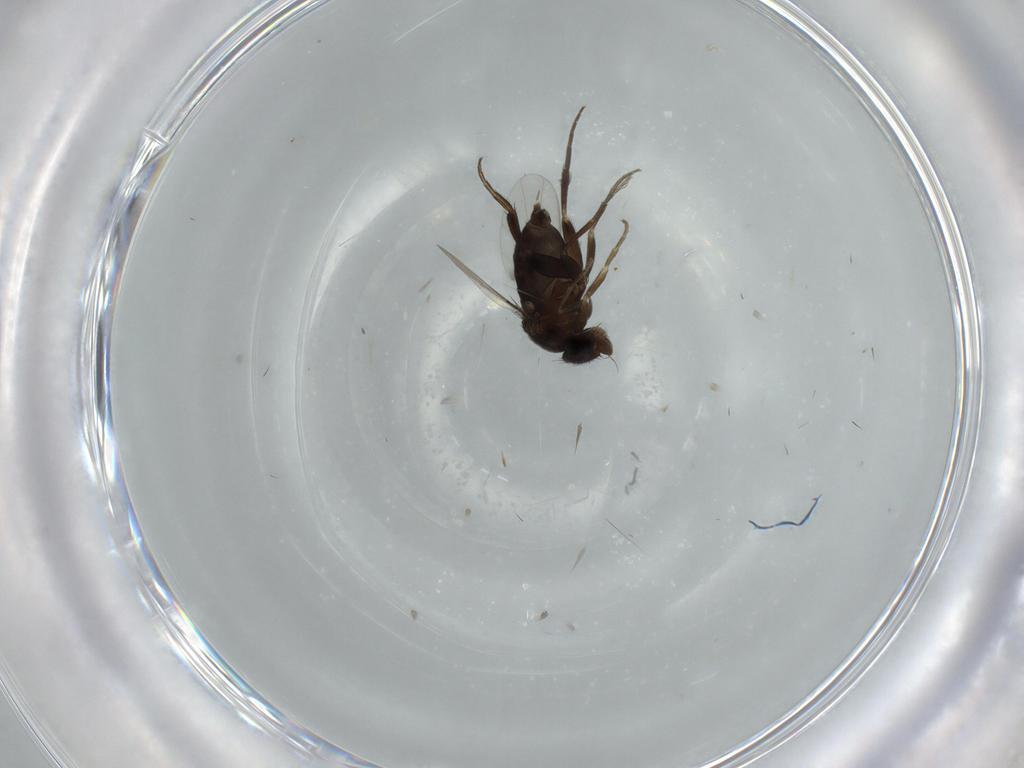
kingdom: Animalia
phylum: Arthropoda
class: Insecta
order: Diptera
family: Phoridae
